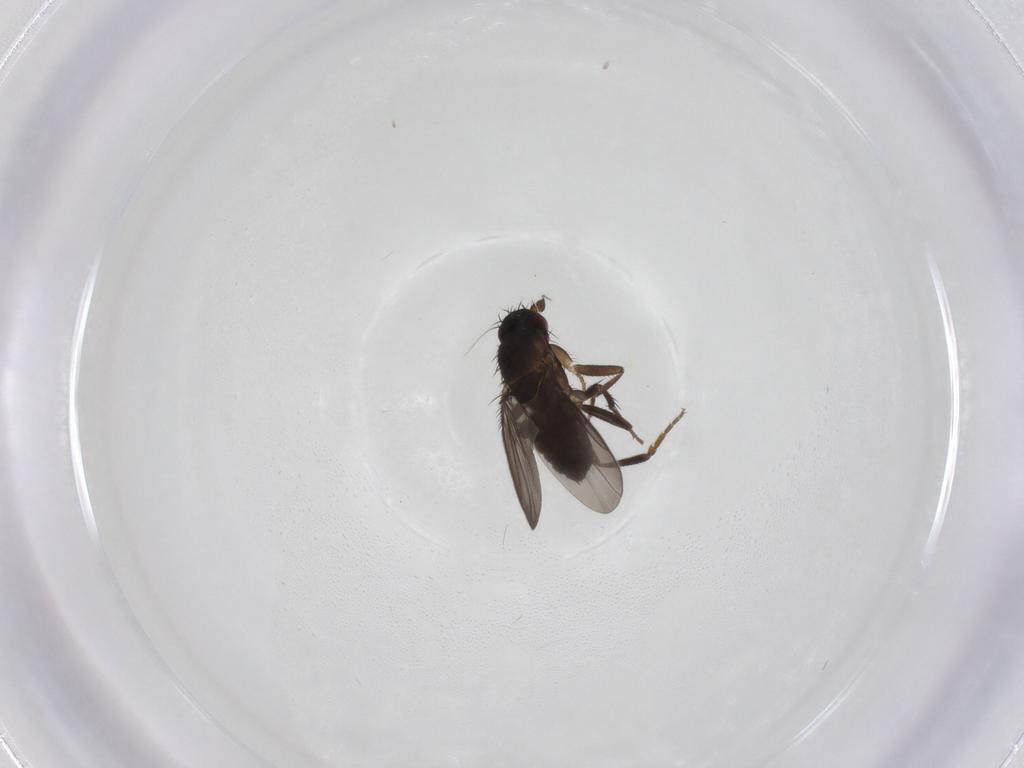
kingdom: Animalia
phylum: Arthropoda
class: Insecta
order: Diptera
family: Sphaeroceridae
